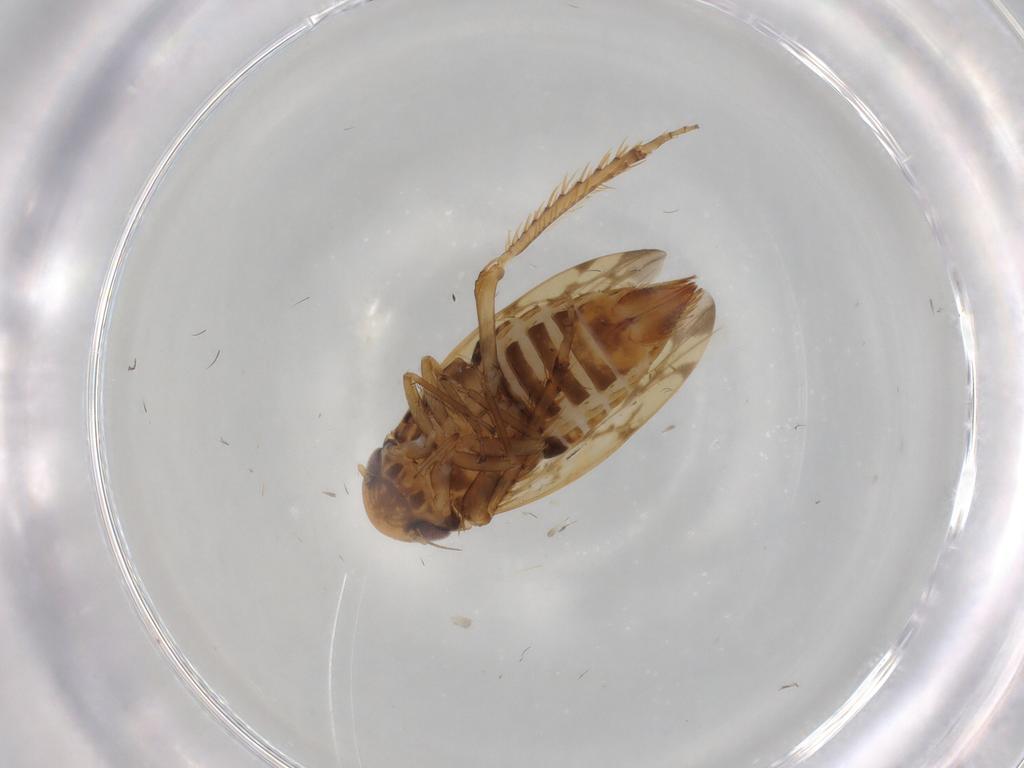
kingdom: Animalia
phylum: Arthropoda
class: Insecta
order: Hemiptera
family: Cicadellidae
